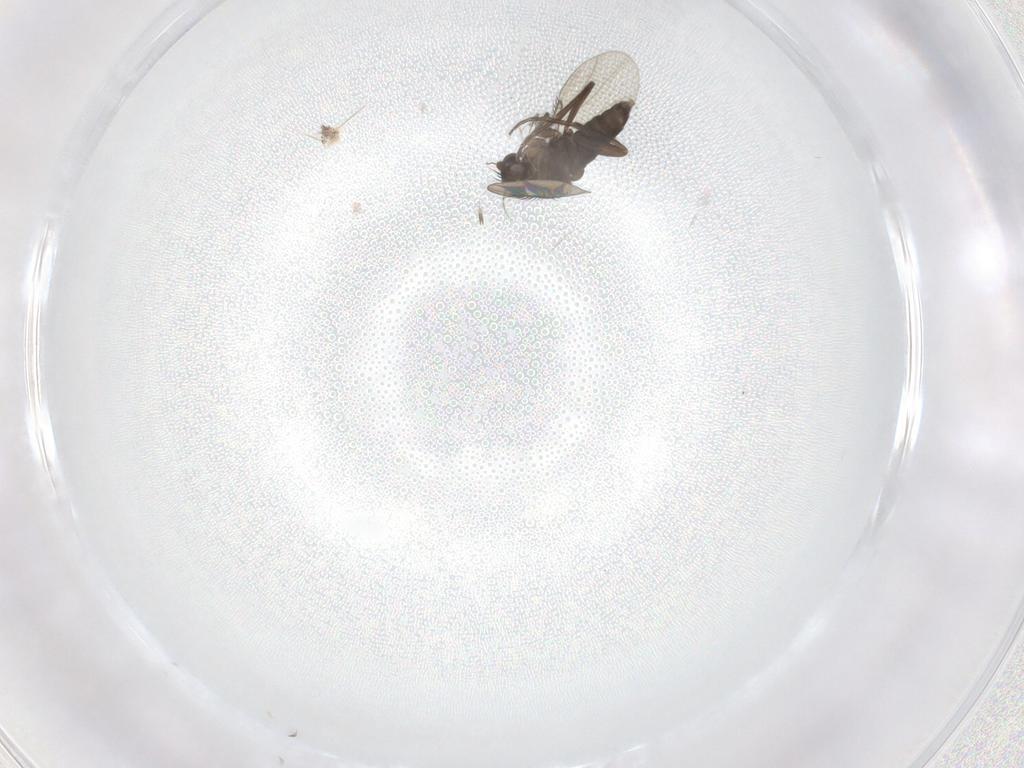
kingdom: Animalia
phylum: Arthropoda
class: Insecta
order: Diptera
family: Phoridae
